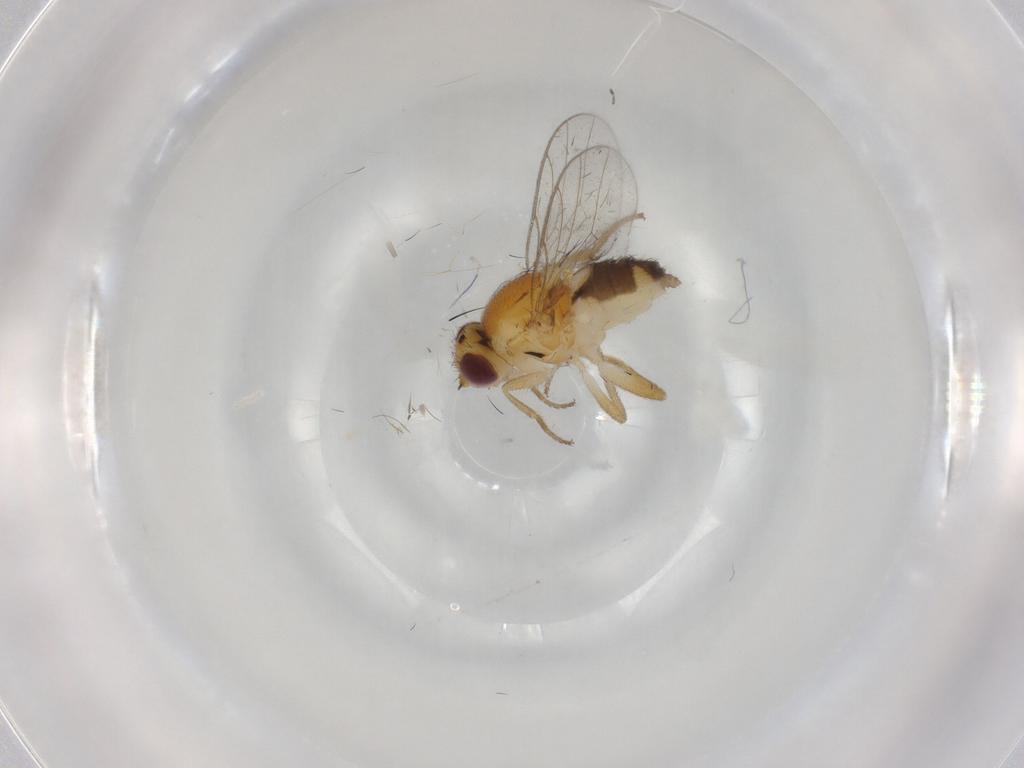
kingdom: Animalia
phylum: Arthropoda
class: Insecta
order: Diptera
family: Chloropidae
